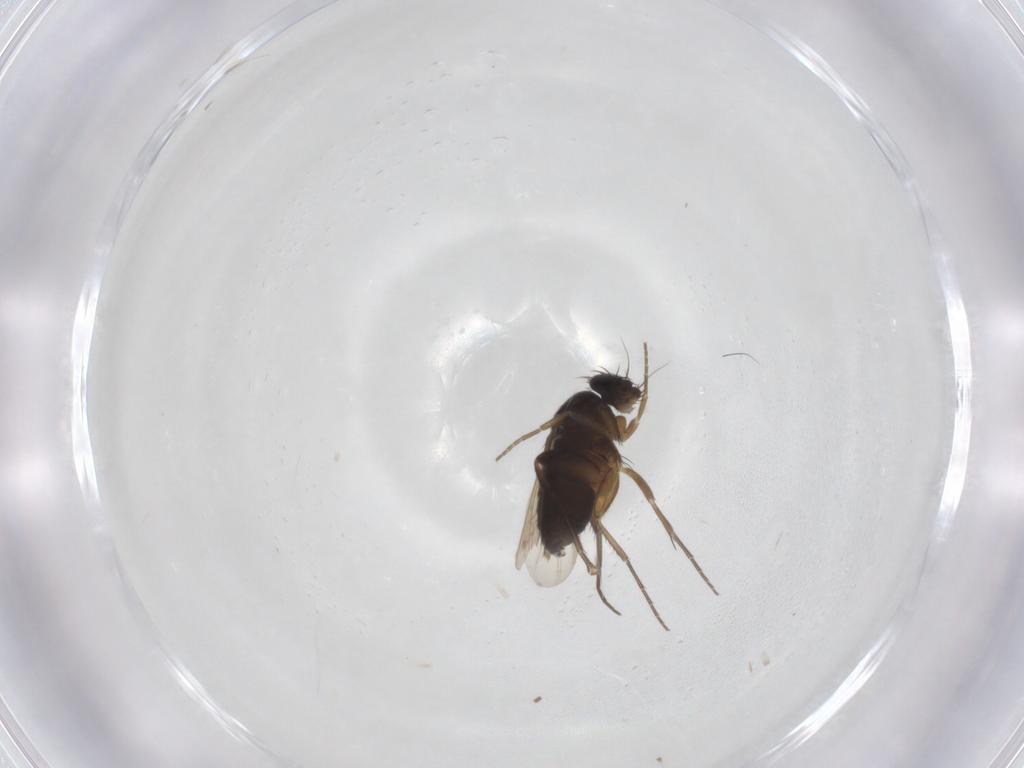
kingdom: Animalia
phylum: Arthropoda
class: Insecta
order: Diptera
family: Phoridae
